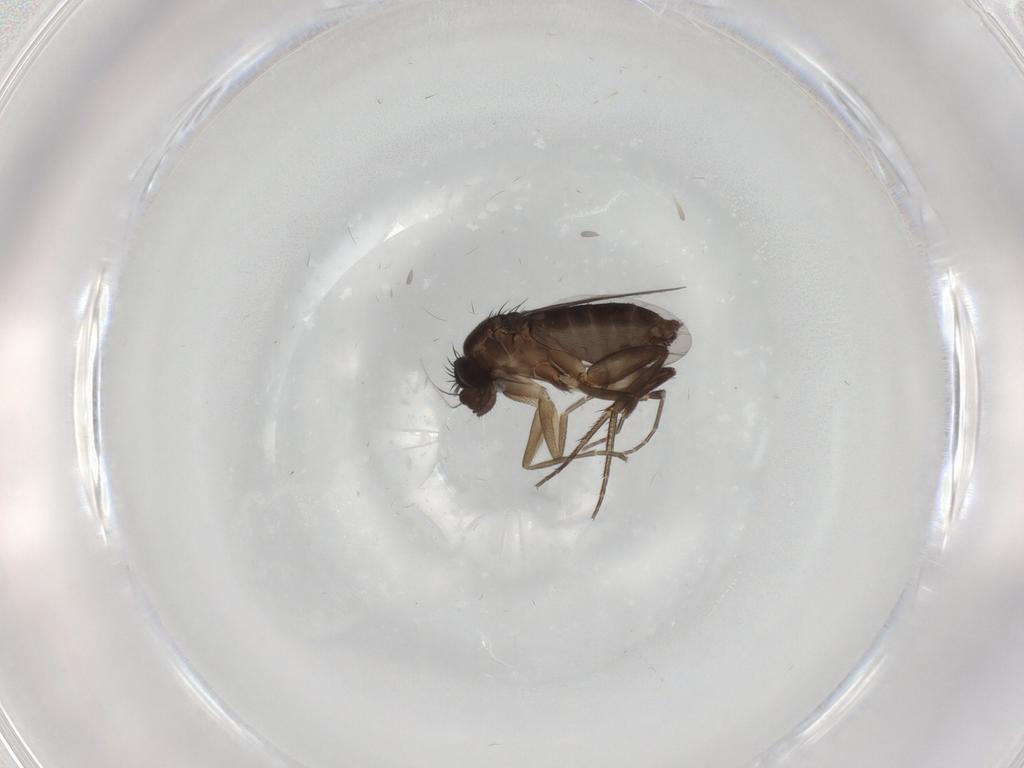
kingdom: Animalia
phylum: Arthropoda
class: Insecta
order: Diptera
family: Phoridae
